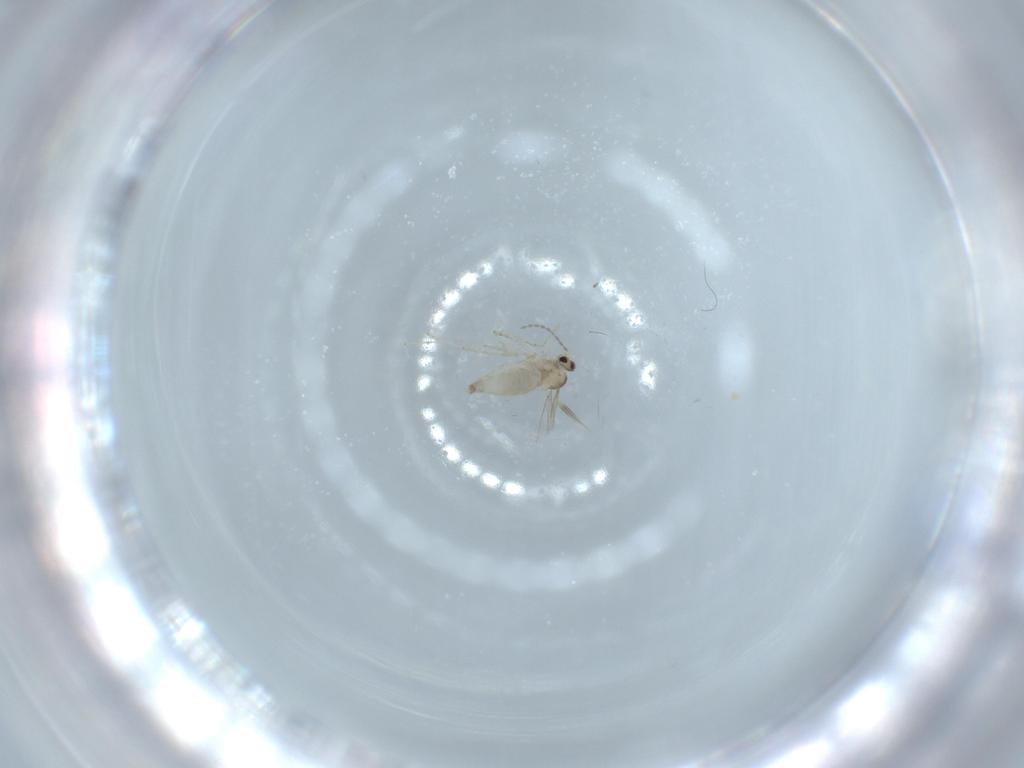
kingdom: Animalia
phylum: Arthropoda
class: Insecta
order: Diptera
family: Cecidomyiidae
